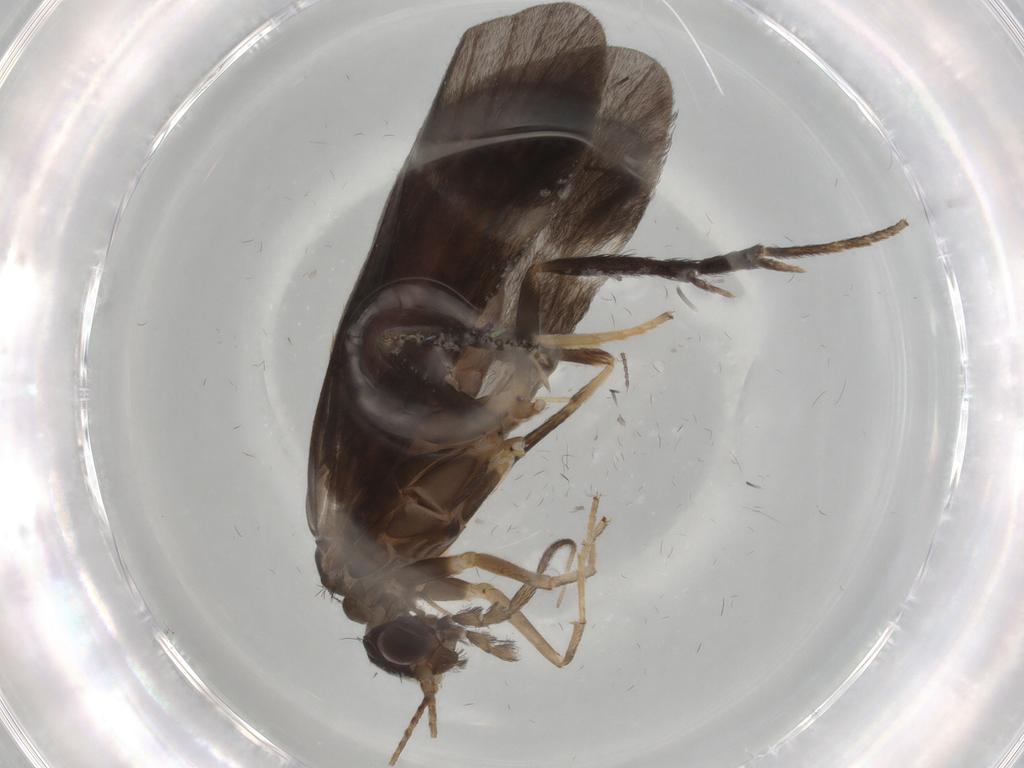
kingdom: Animalia
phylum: Arthropoda
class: Insecta
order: Trichoptera
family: Hydropsychidae
